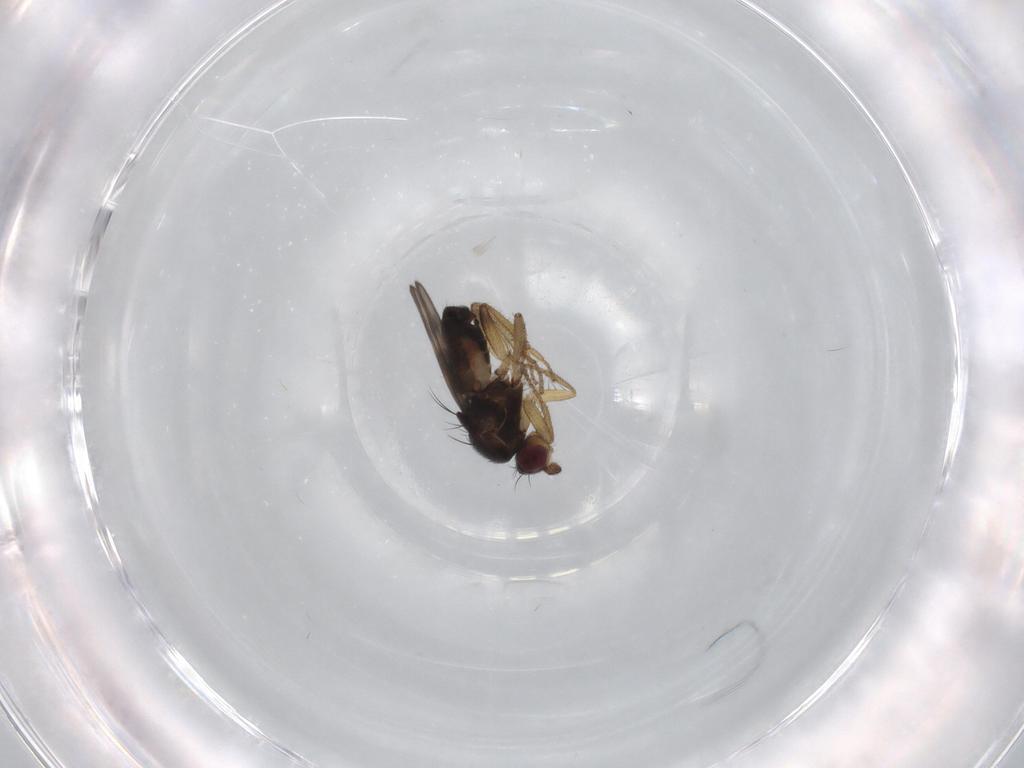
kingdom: Animalia
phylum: Arthropoda
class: Insecta
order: Diptera
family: Sphaeroceridae
